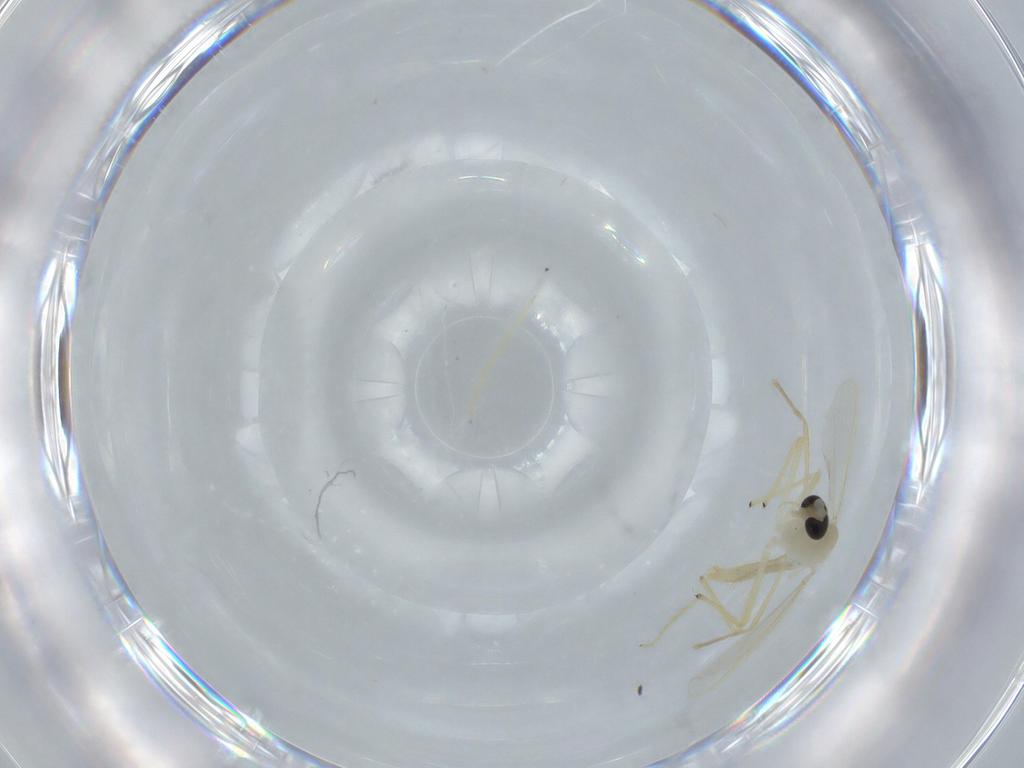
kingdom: Animalia
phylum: Arthropoda
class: Insecta
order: Diptera
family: Chironomidae
